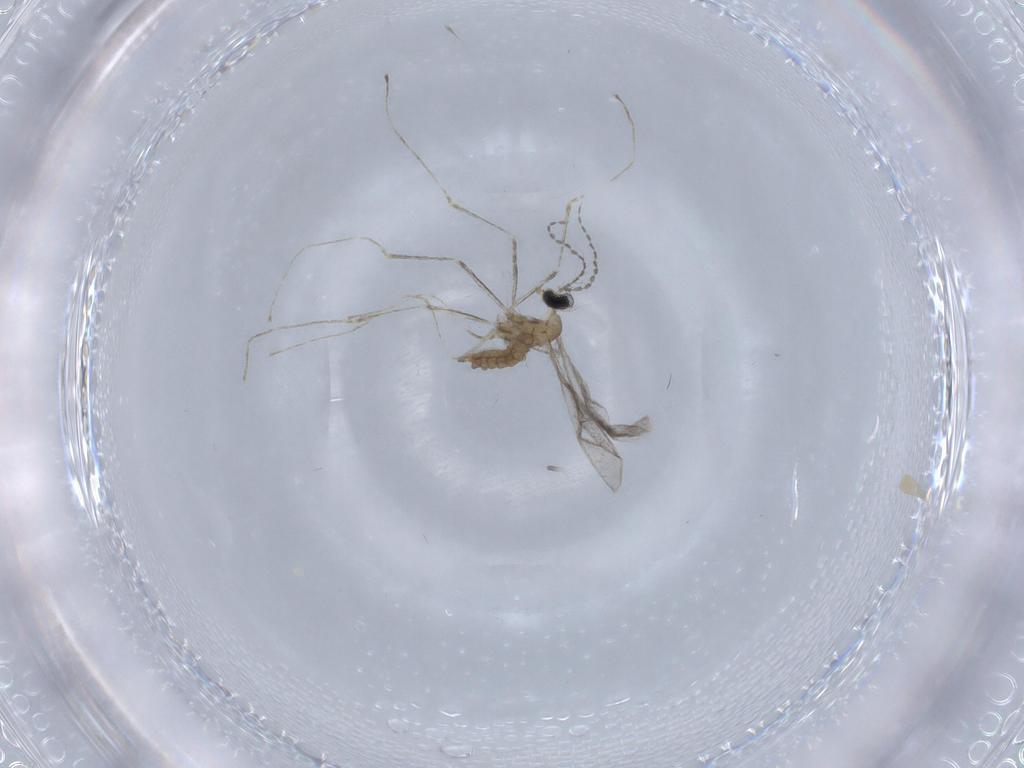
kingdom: Animalia
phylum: Arthropoda
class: Insecta
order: Diptera
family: Cecidomyiidae
